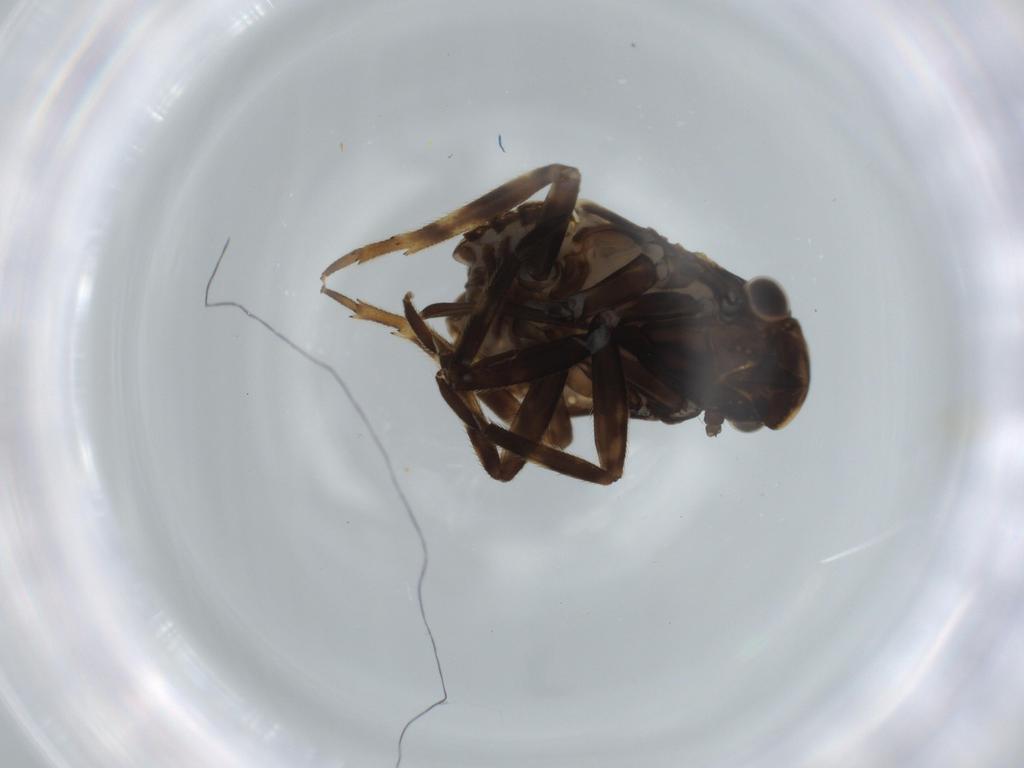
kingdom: Animalia
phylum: Arthropoda
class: Insecta
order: Hemiptera
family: Fulgoridae
